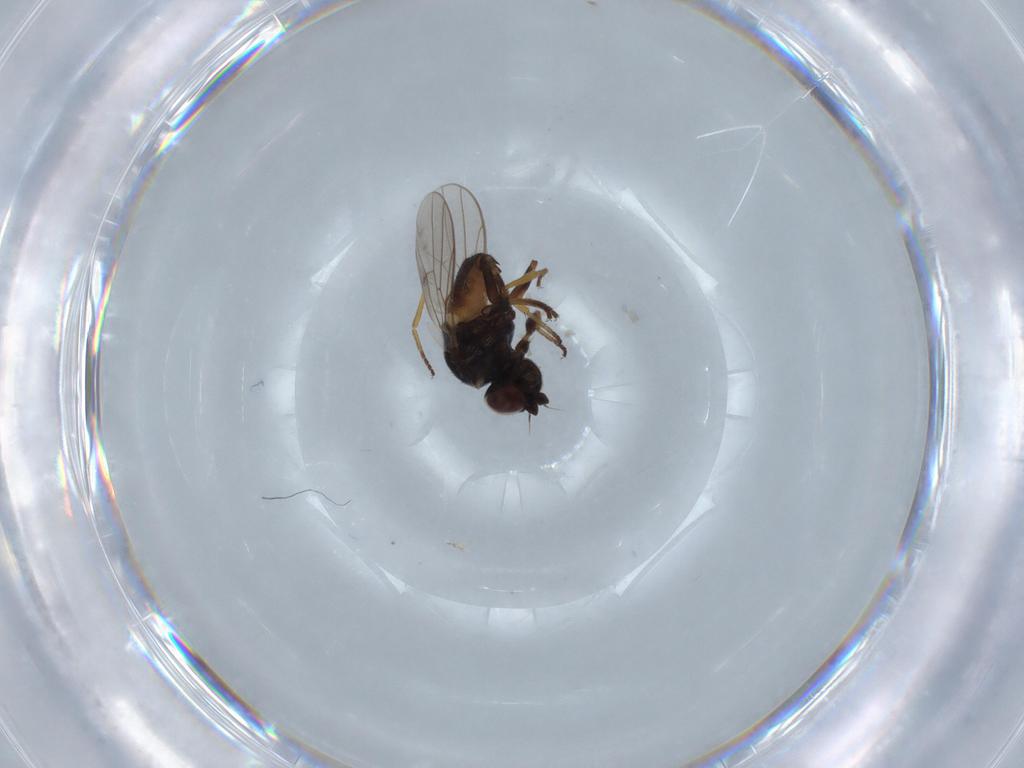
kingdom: Animalia
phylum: Arthropoda
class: Insecta
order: Diptera
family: Chloropidae
